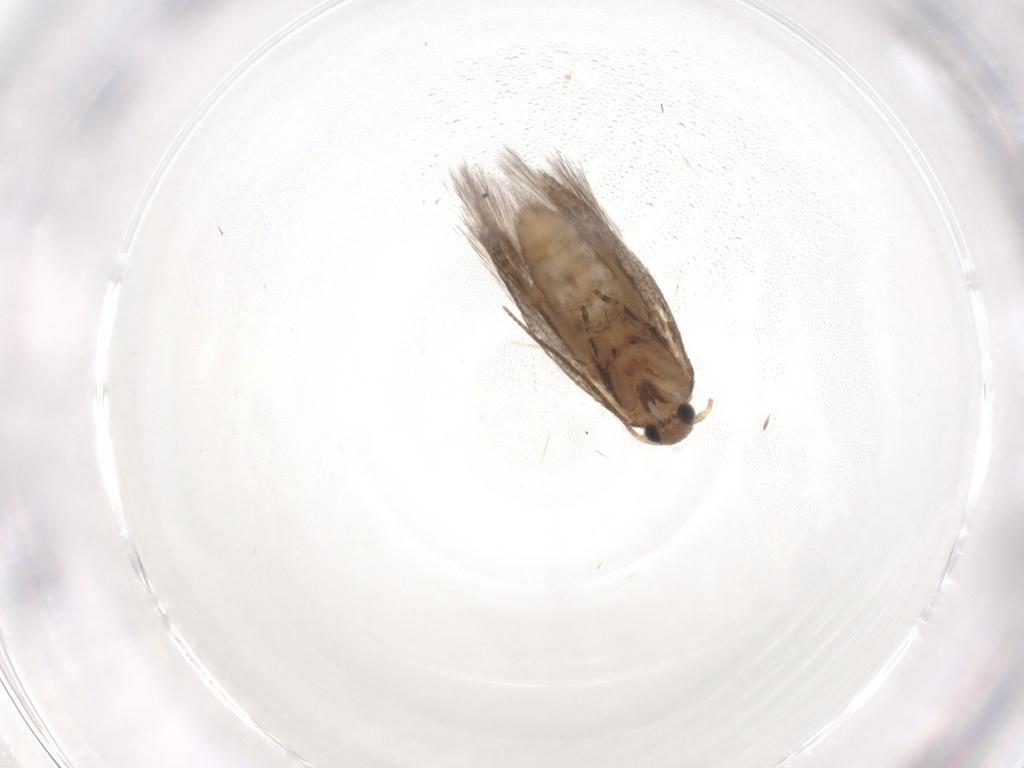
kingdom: Animalia
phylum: Arthropoda
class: Insecta
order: Lepidoptera
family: Elachistidae
